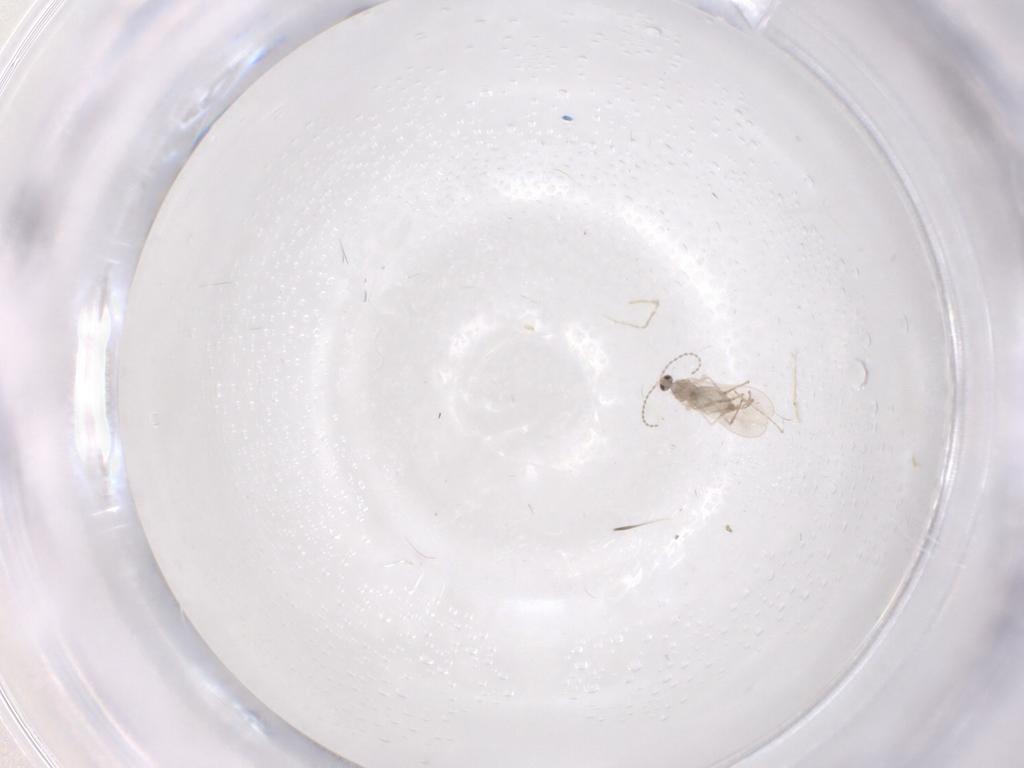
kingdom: Animalia
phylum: Arthropoda
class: Insecta
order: Diptera
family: Cecidomyiidae
